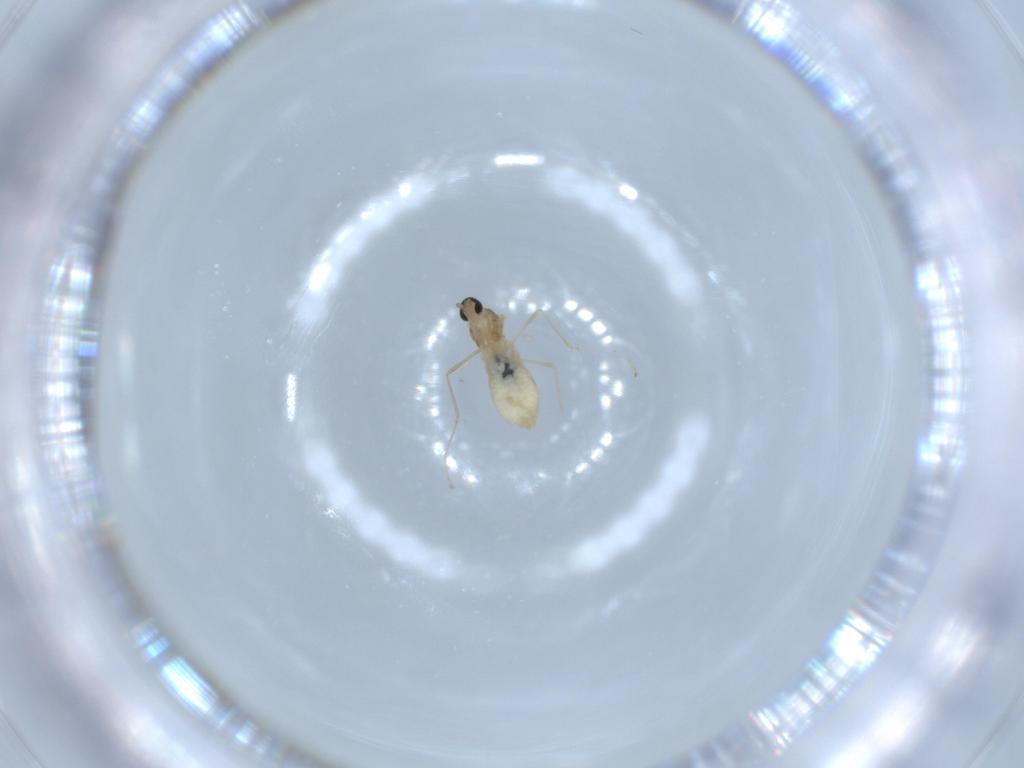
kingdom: Animalia
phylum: Arthropoda
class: Insecta
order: Diptera
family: Cecidomyiidae
